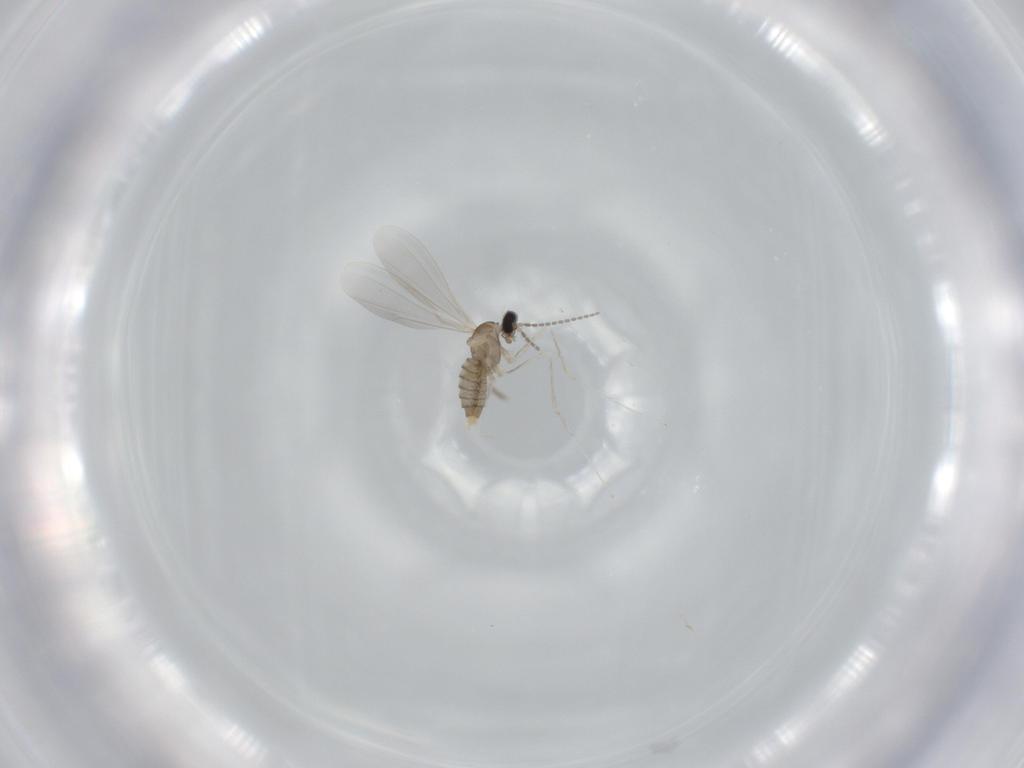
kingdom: Animalia
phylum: Arthropoda
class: Insecta
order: Diptera
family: Cecidomyiidae
